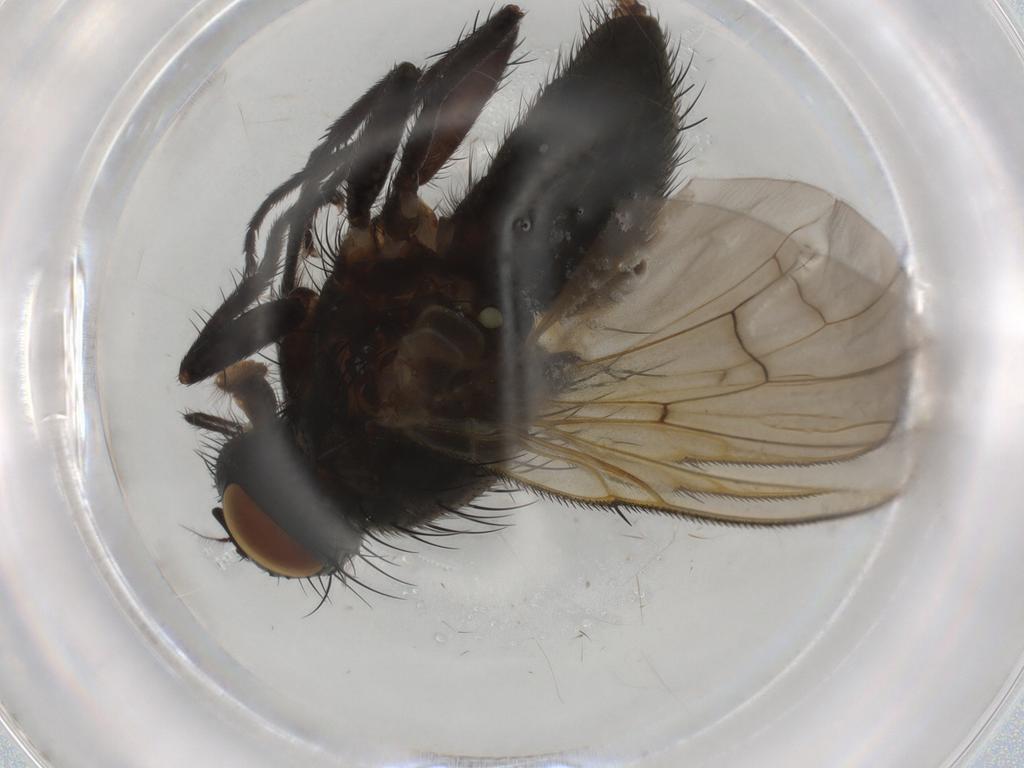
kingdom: Animalia
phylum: Arthropoda
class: Insecta
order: Diptera
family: Muscidae
